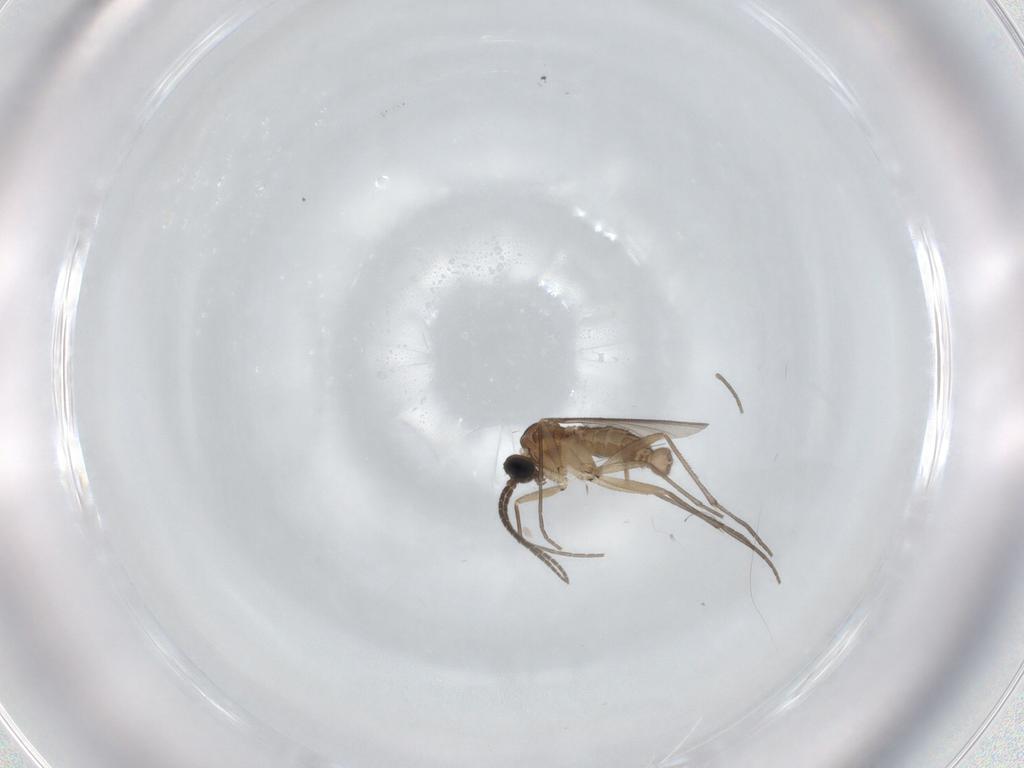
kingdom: Animalia
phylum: Arthropoda
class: Insecta
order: Diptera
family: Sciaridae
